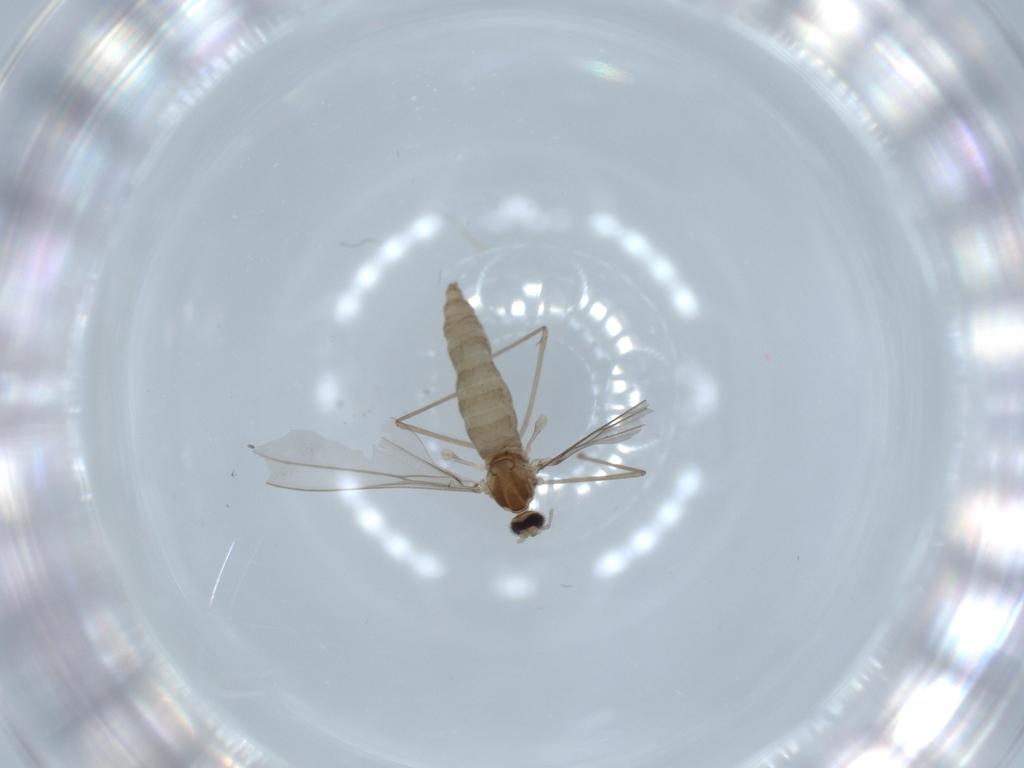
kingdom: Animalia
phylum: Arthropoda
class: Insecta
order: Diptera
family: Cecidomyiidae
